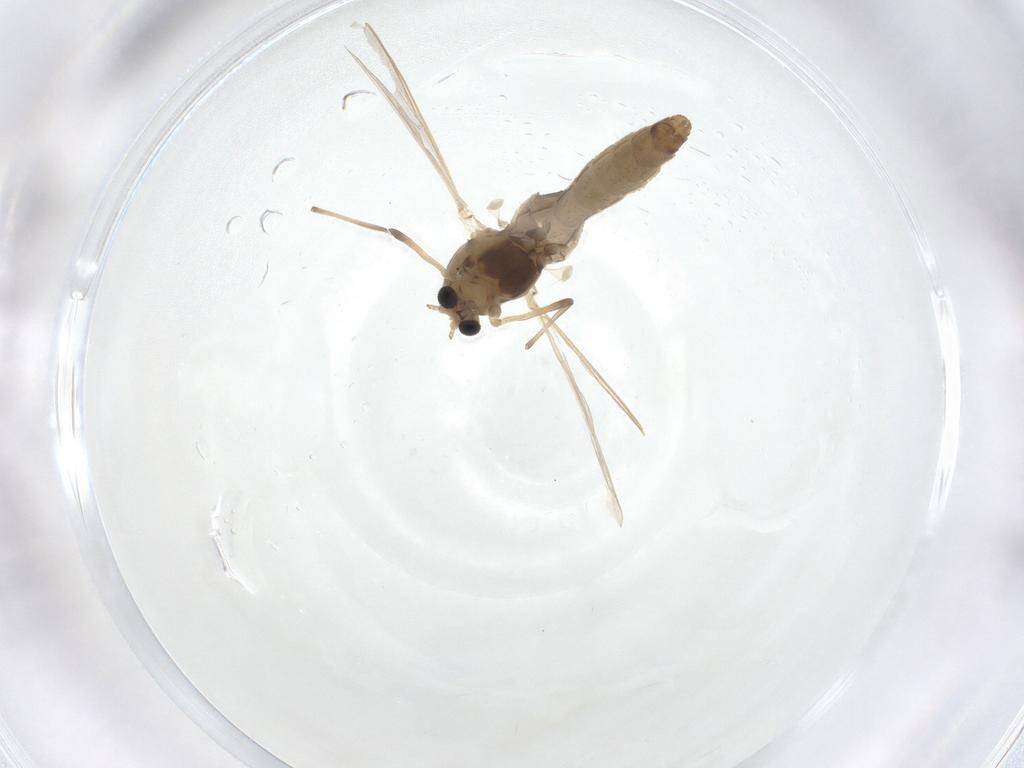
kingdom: Animalia
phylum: Arthropoda
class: Insecta
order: Diptera
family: Chironomidae
